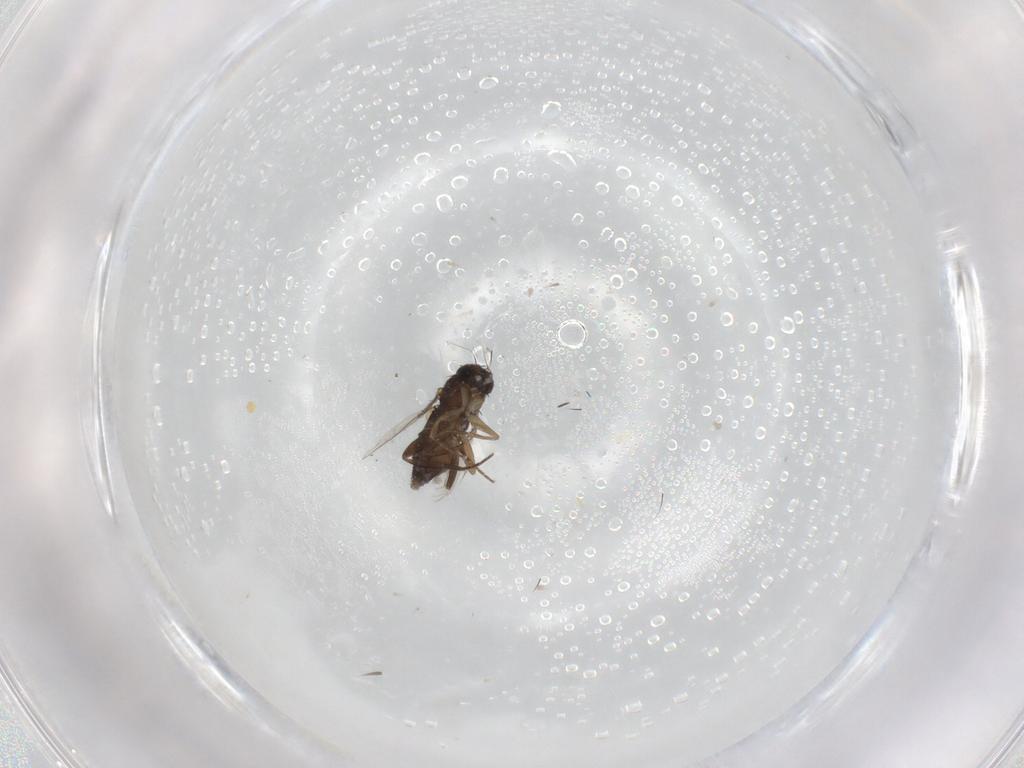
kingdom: Animalia
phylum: Arthropoda
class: Insecta
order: Diptera
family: Phoridae
